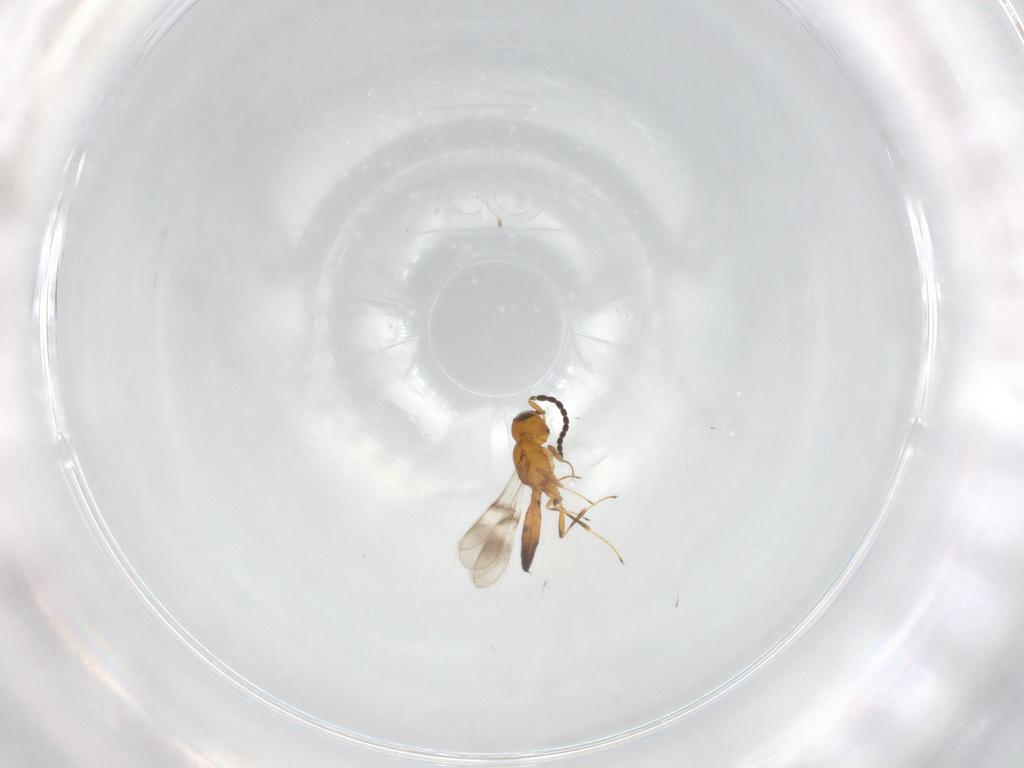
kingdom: Animalia
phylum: Arthropoda
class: Insecta
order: Hymenoptera
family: Scelionidae
